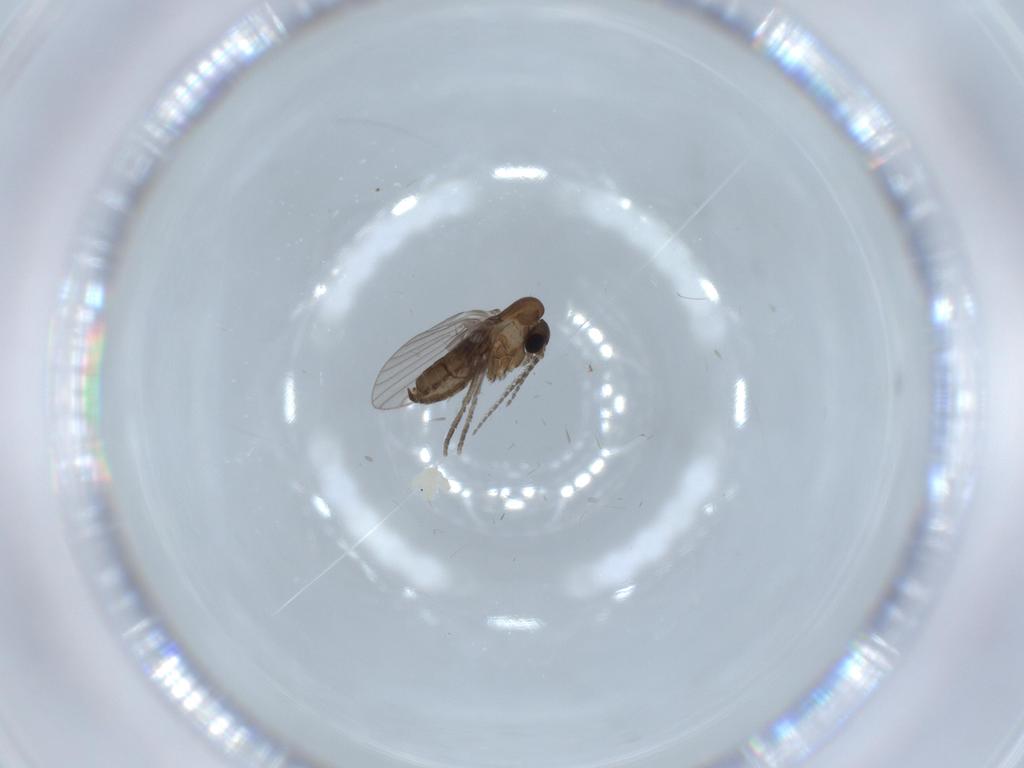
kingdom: Animalia
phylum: Arthropoda
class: Insecta
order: Diptera
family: Psychodidae
